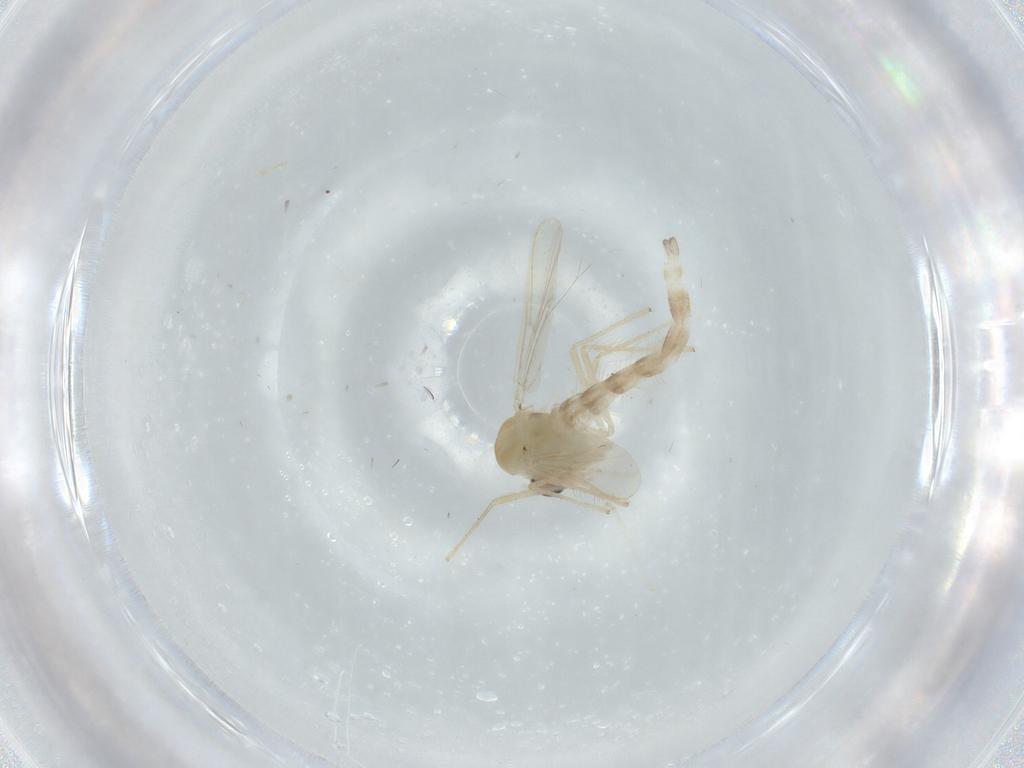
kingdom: Animalia
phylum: Arthropoda
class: Insecta
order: Diptera
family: Chironomidae
